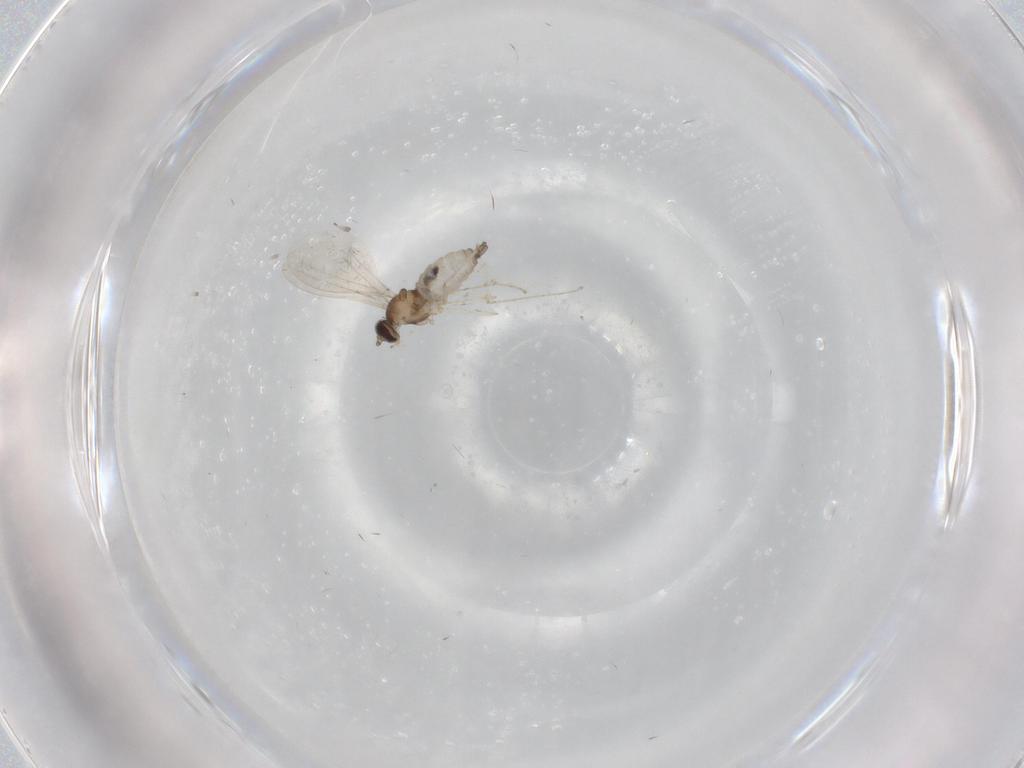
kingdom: Animalia
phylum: Arthropoda
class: Insecta
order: Diptera
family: Cecidomyiidae
